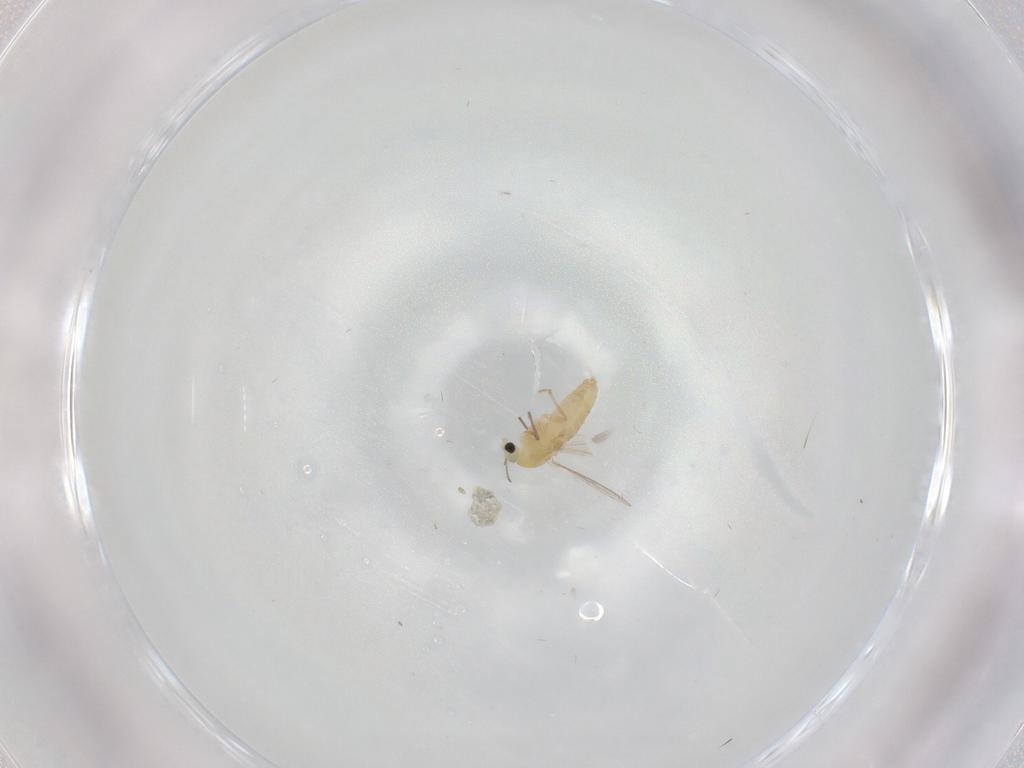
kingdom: Animalia
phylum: Arthropoda
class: Insecta
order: Diptera
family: Chironomidae
